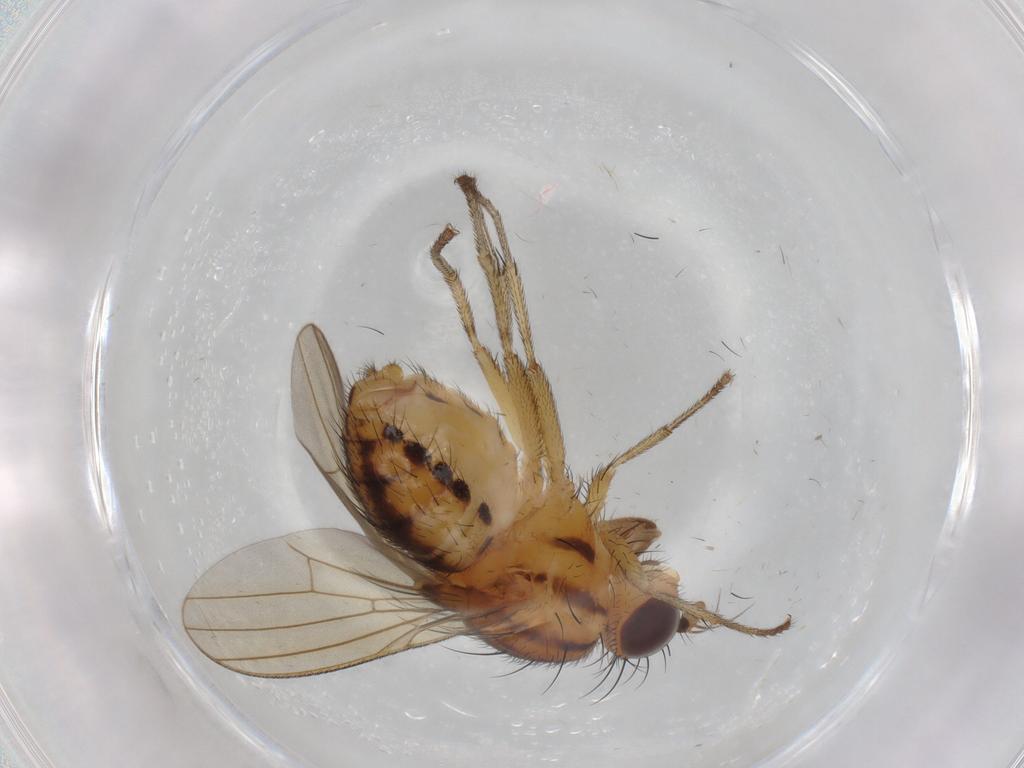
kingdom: Animalia
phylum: Arthropoda
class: Insecta
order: Diptera
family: Lauxaniidae
